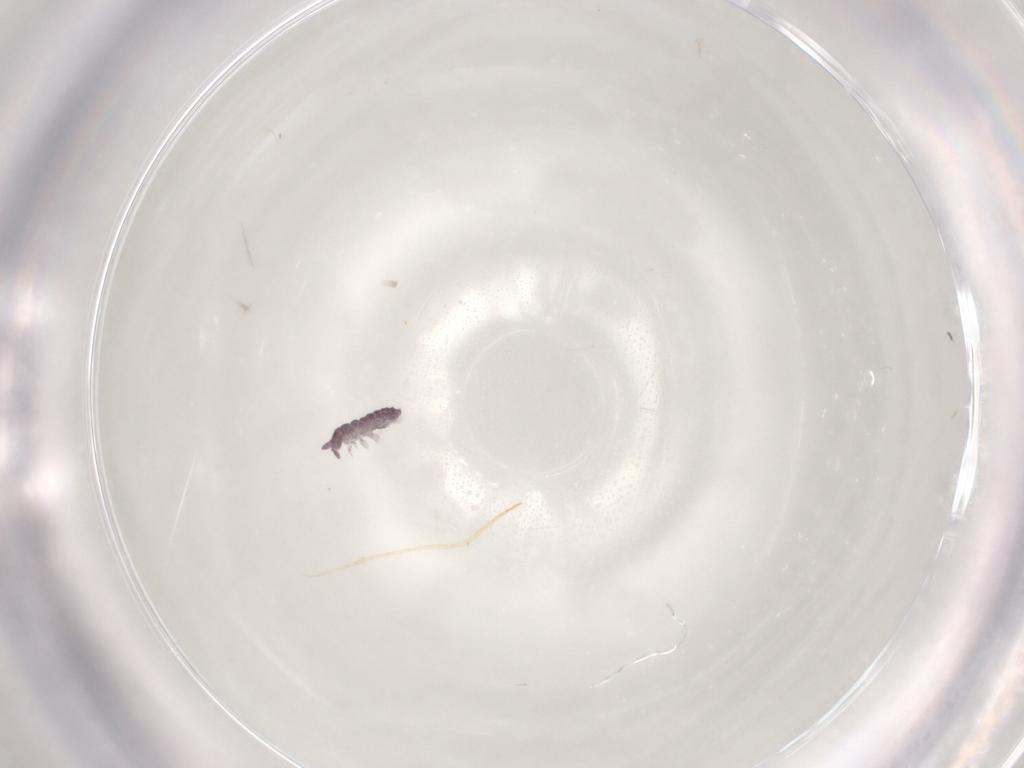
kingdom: Animalia
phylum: Arthropoda
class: Collembola
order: Poduromorpha
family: Hypogastruridae
